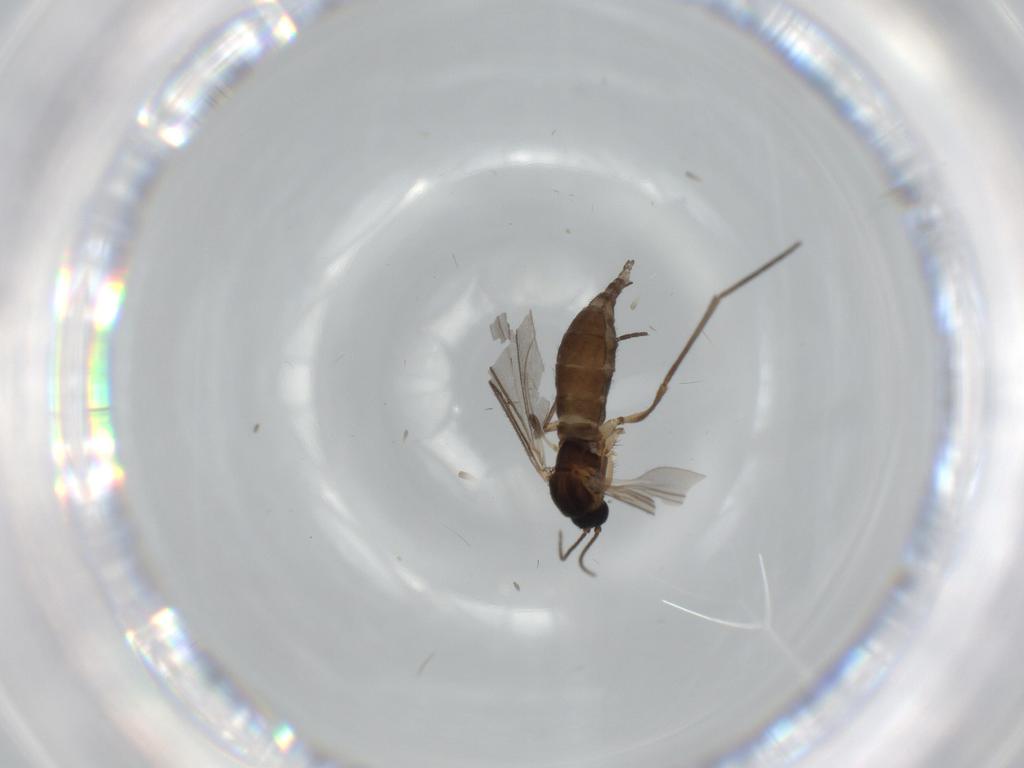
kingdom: Animalia
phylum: Arthropoda
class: Insecta
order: Diptera
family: Sciaridae
